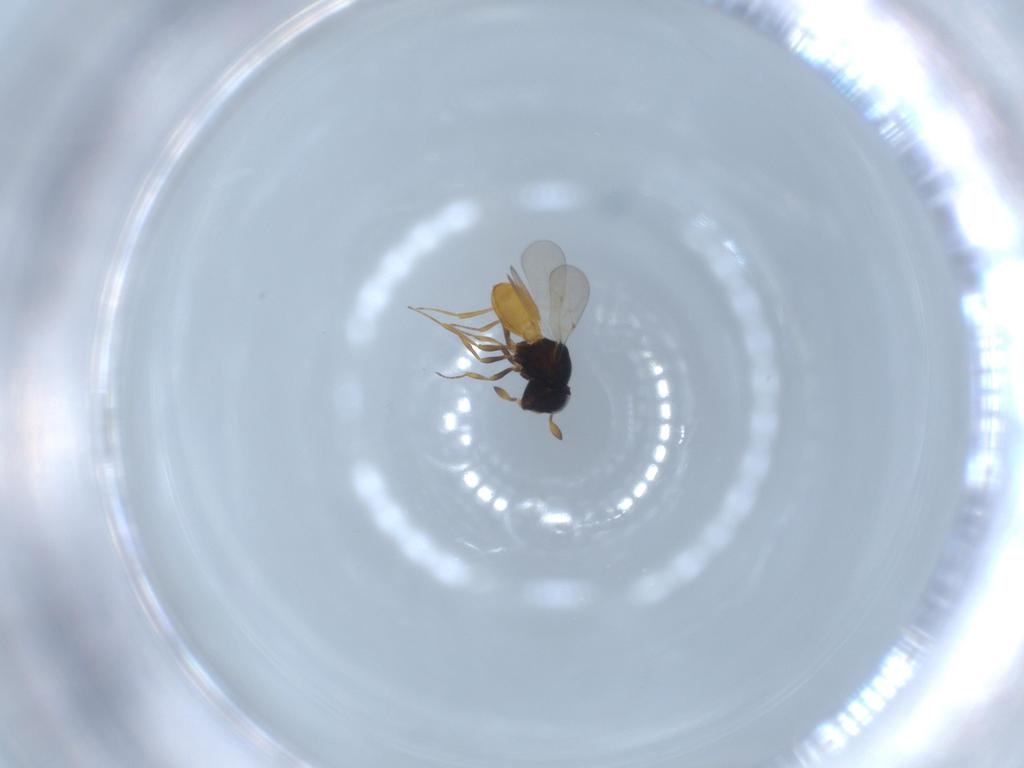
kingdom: Animalia
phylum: Arthropoda
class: Insecta
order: Hymenoptera
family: Scelionidae
